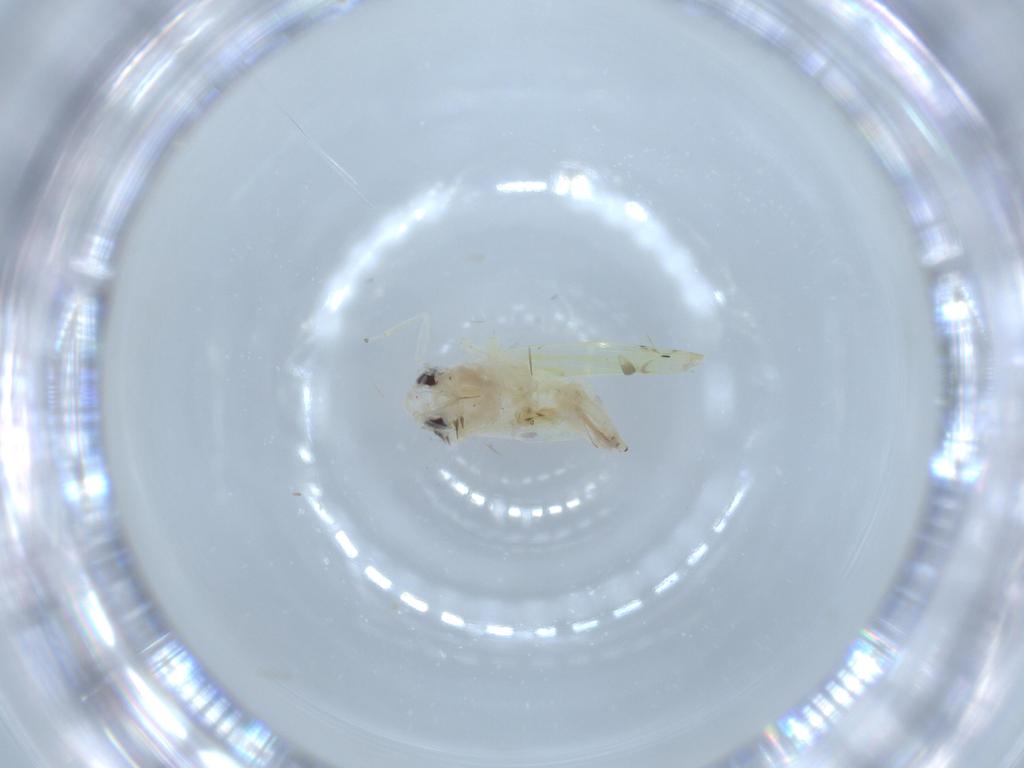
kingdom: Animalia
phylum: Arthropoda
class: Insecta
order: Hemiptera
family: Cicadellidae
